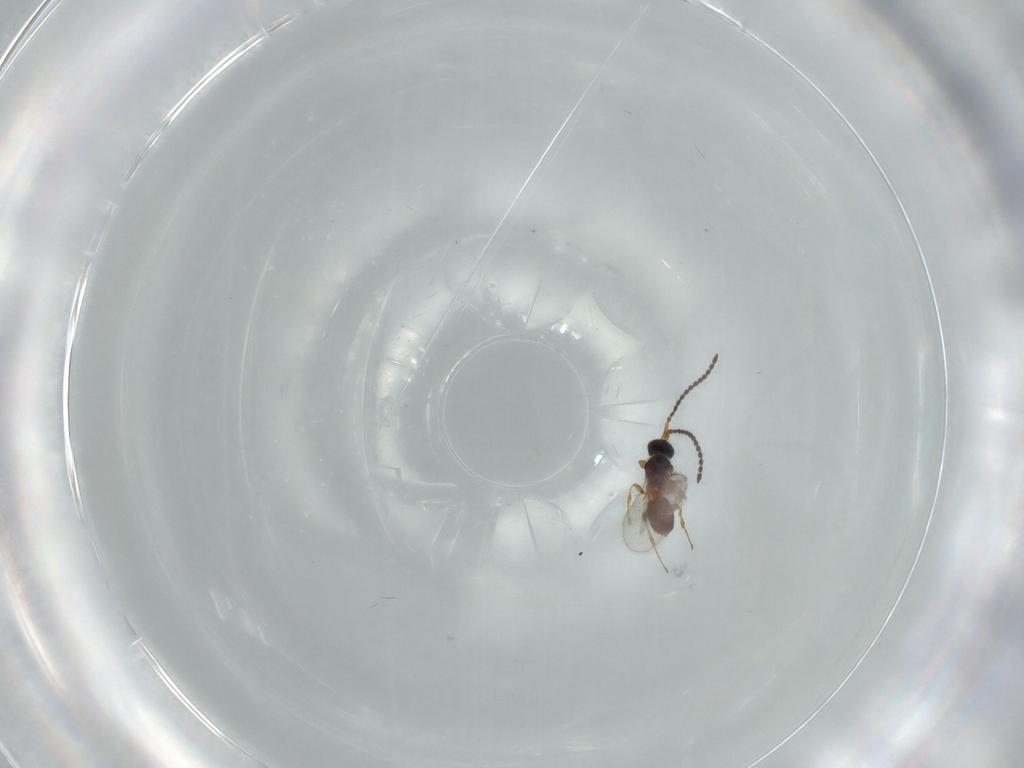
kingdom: Animalia
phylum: Arthropoda
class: Insecta
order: Hymenoptera
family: Diapriidae
